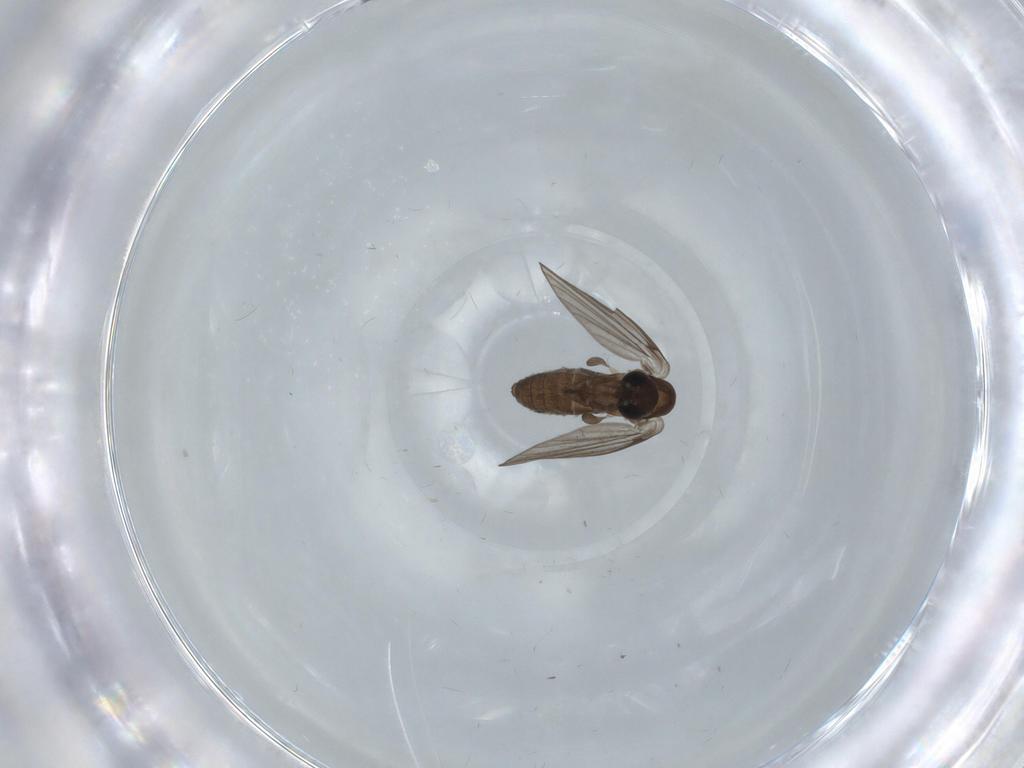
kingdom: Animalia
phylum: Arthropoda
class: Insecta
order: Diptera
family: Psychodidae
